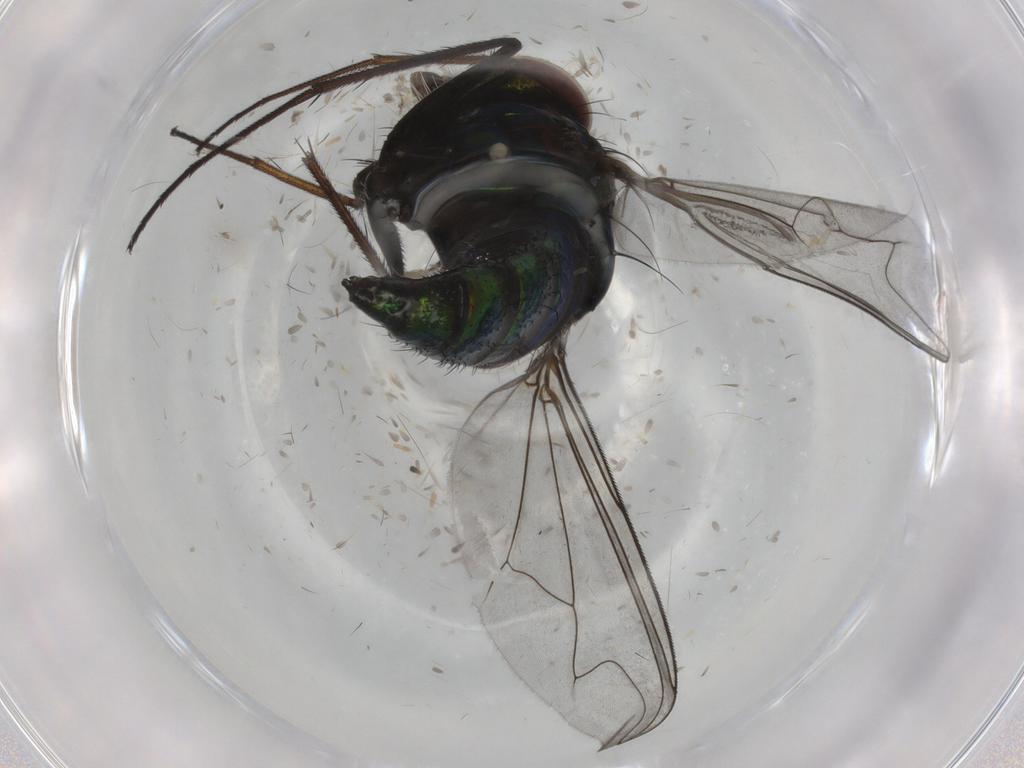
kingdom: Animalia
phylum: Arthropoda
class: Insecta
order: Diptera
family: Dolichopodidae
